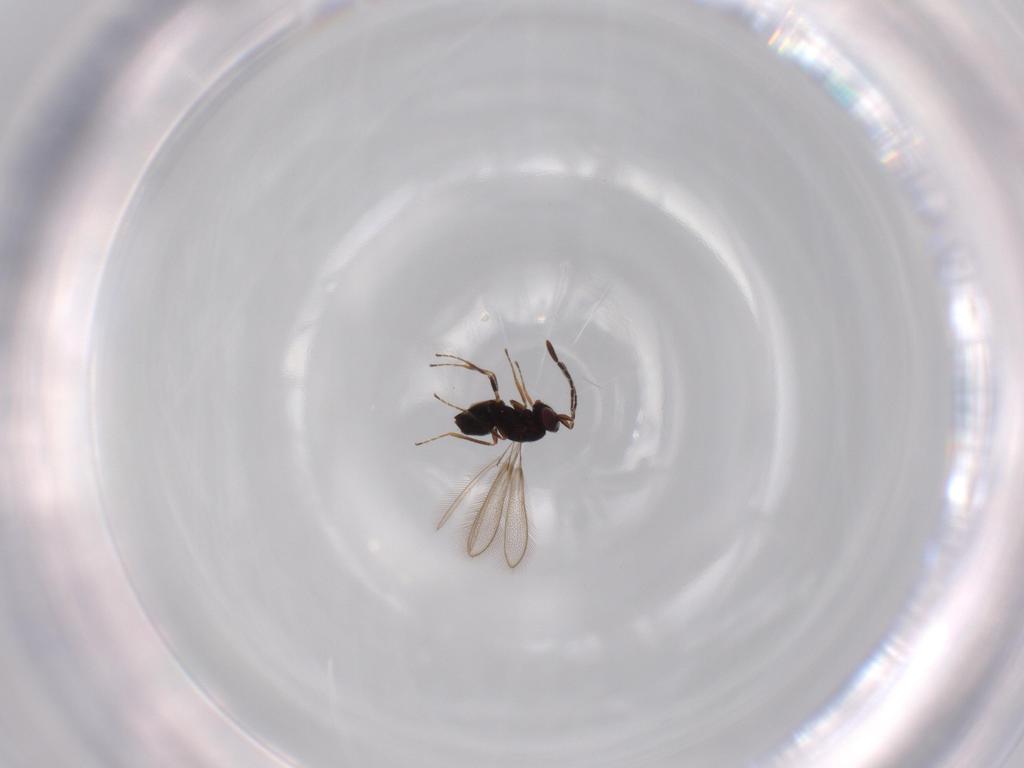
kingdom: Animalia
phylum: Arthropoda
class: Insecta
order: Hymenoptera
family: Mymaridae
